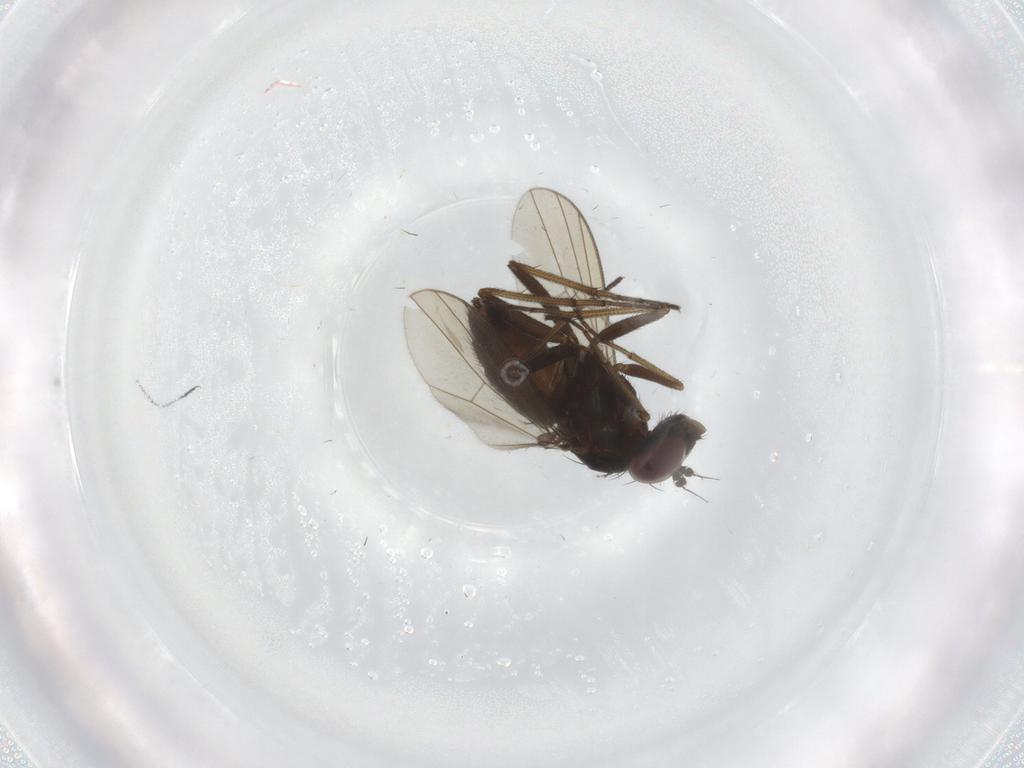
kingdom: Animalia
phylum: Arthropoda
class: Insecta
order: Diptera
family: Dolichopodidae
